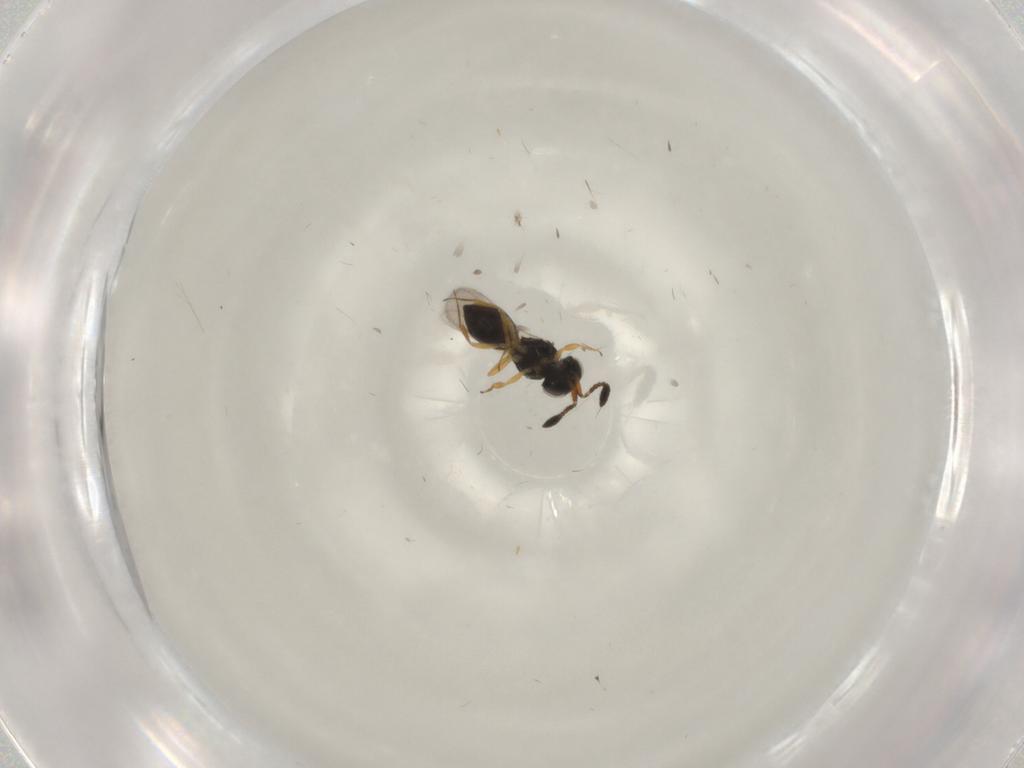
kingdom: Animalia
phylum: Arthropoda
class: Insecta
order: Hymenoptera
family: Scelionidae
